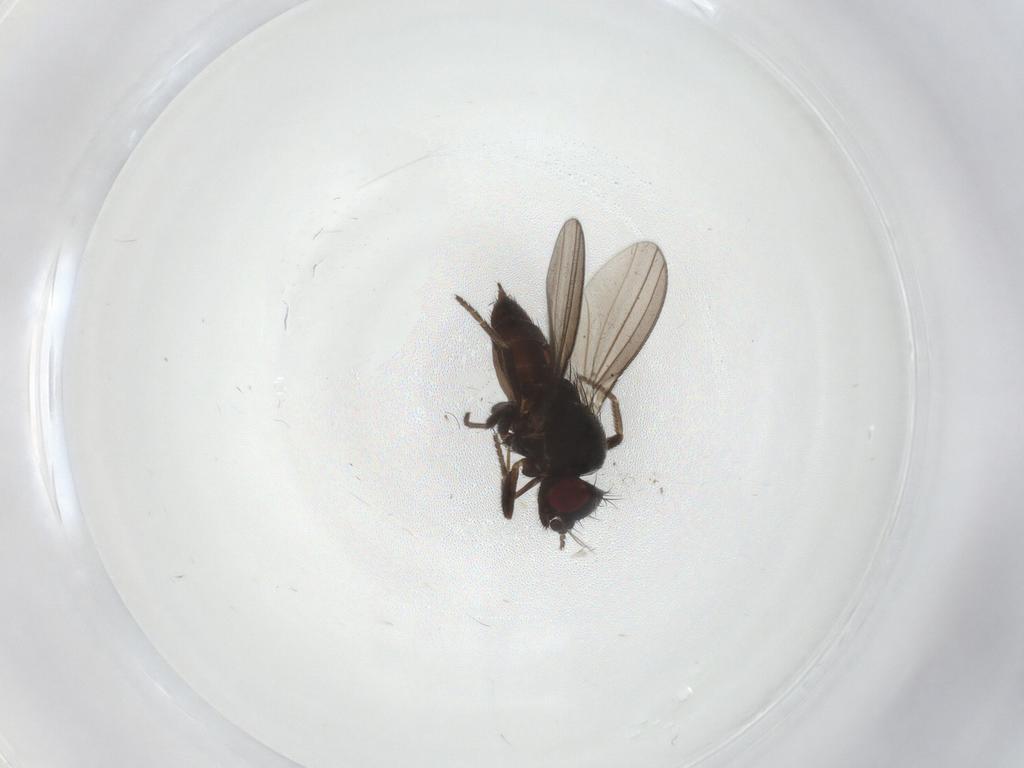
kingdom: Animalia
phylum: Arthropoda
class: Insecta
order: Diptera
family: Milichiidae
